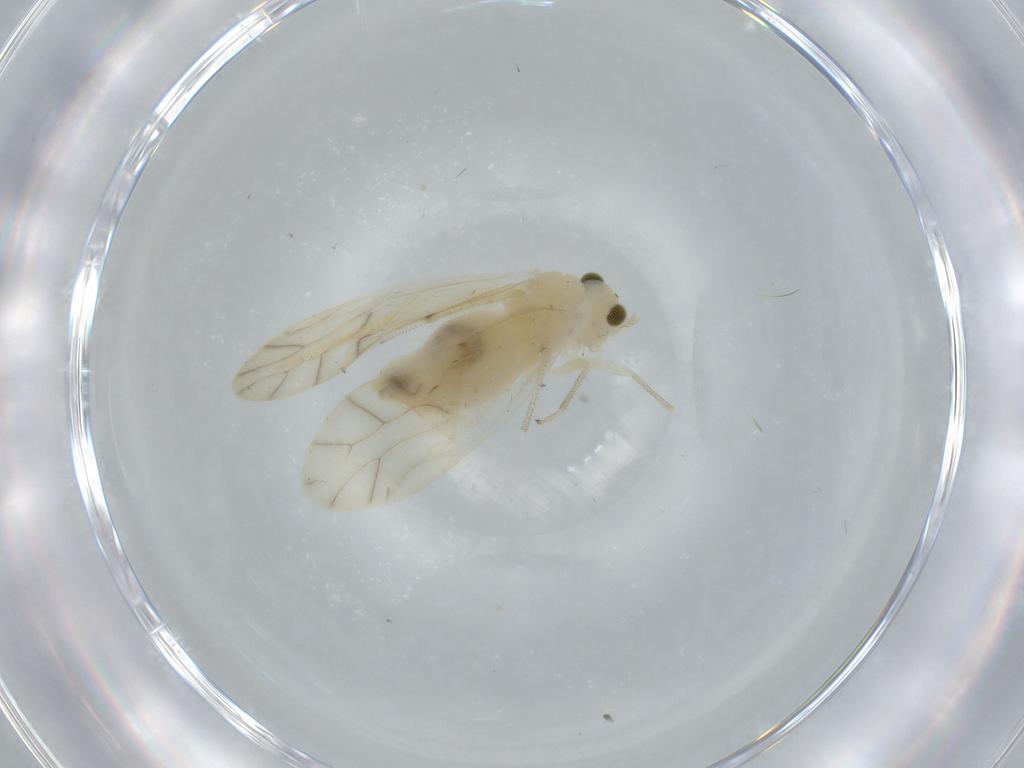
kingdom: Animalia
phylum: Arthropoda
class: Insecta
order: Psocodea
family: Caeciliusidae
